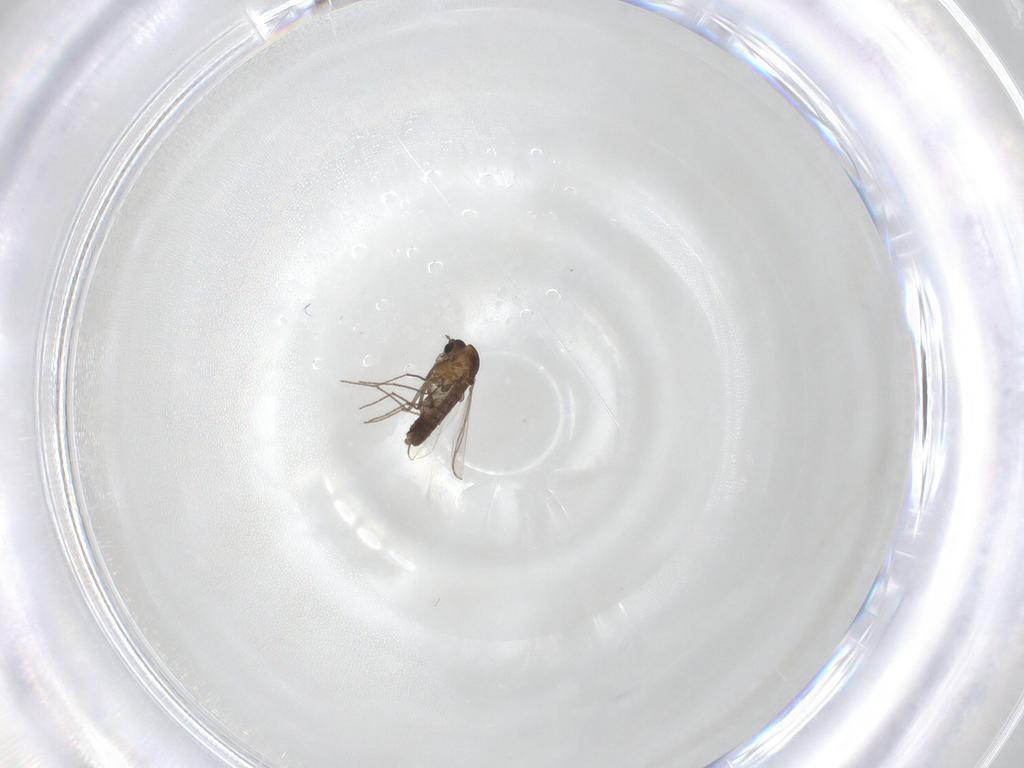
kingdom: Animalia
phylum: Arthropoda
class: Insecta
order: Diptera
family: Chironomidae
